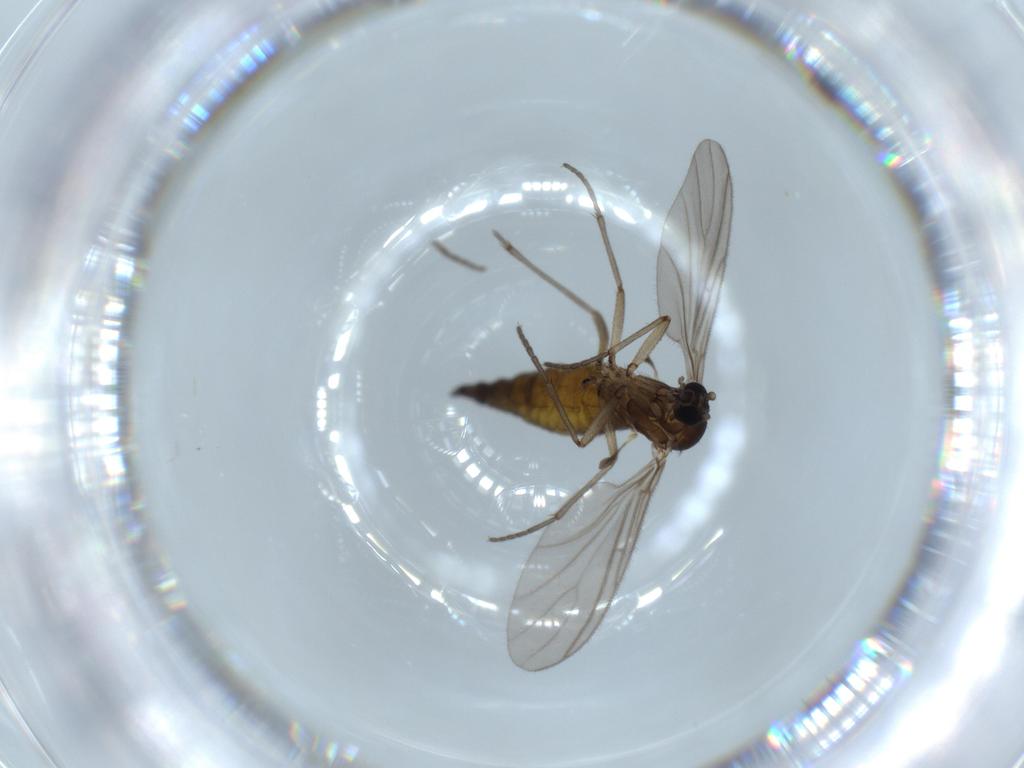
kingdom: Animalia
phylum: Arthropoda
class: Insecta
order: Diptera
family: Sciaridae
